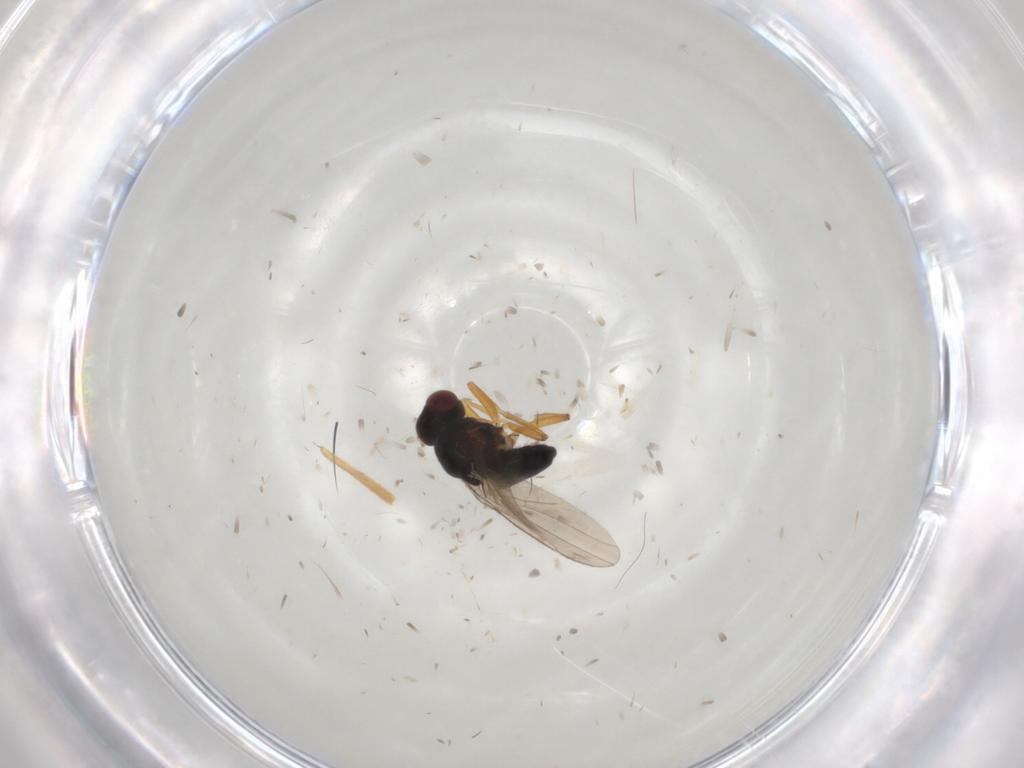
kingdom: Animalia
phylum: Arthropoda
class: Insecta
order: Diptera
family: Ephydridae
